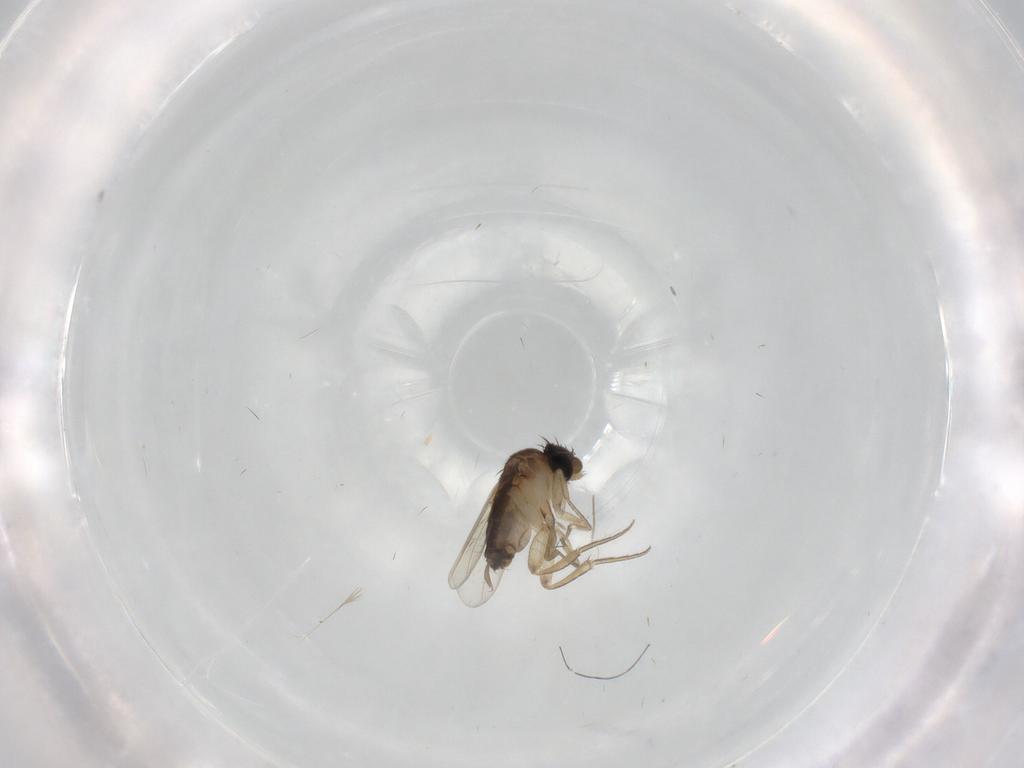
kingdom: Animalia
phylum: Arthropoda
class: Insecta
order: Diptera
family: Chironomidae
